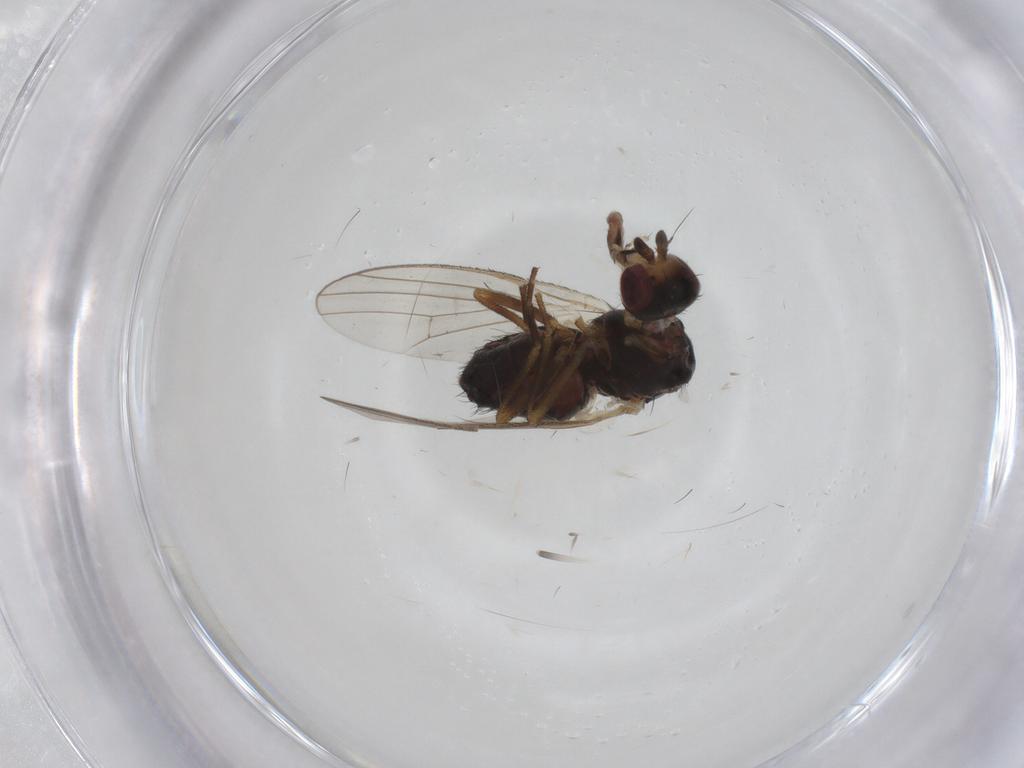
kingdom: Animalia
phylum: Arthropoda
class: Insecta
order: Diptera
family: Heleomyzidae
